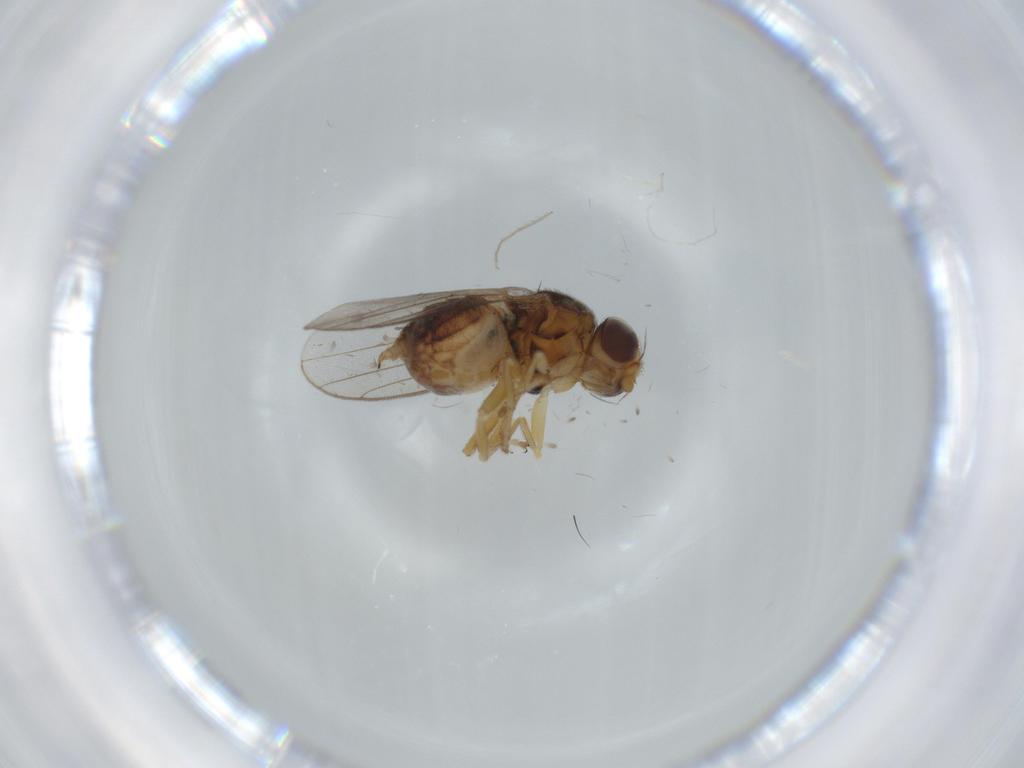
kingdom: Animalia
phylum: Arthropoda
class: Insecta
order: Diptera
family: Chloropidae
